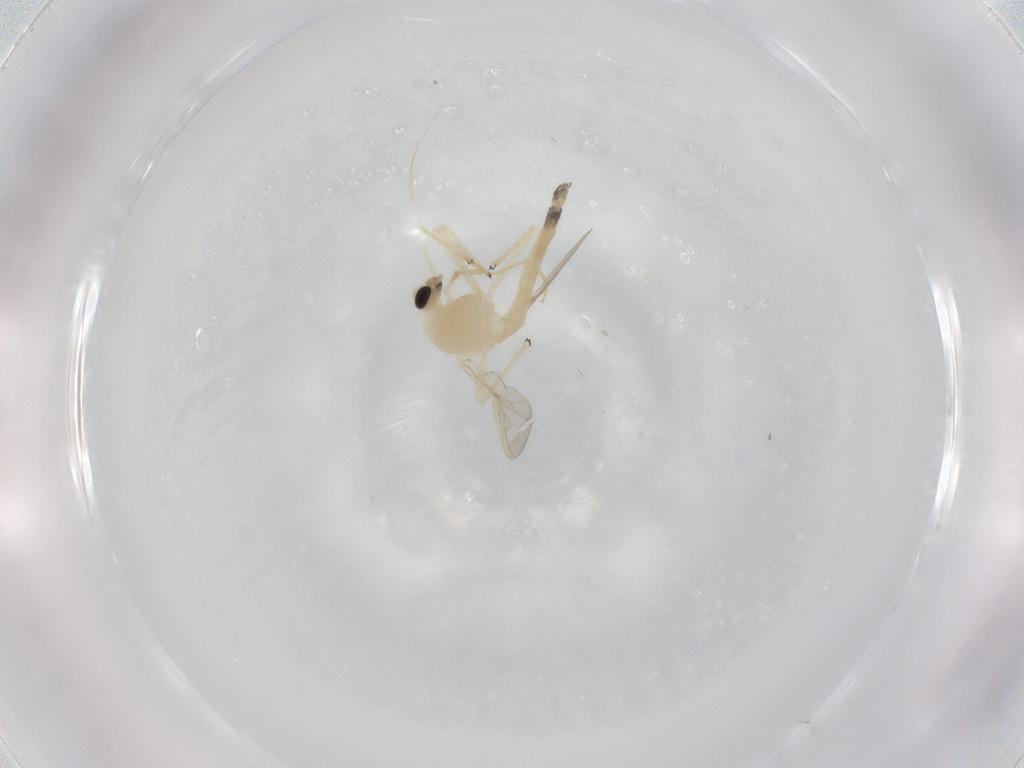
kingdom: Animalia
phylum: Arthropoda
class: Insecta
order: Diptera
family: Chironomidae
